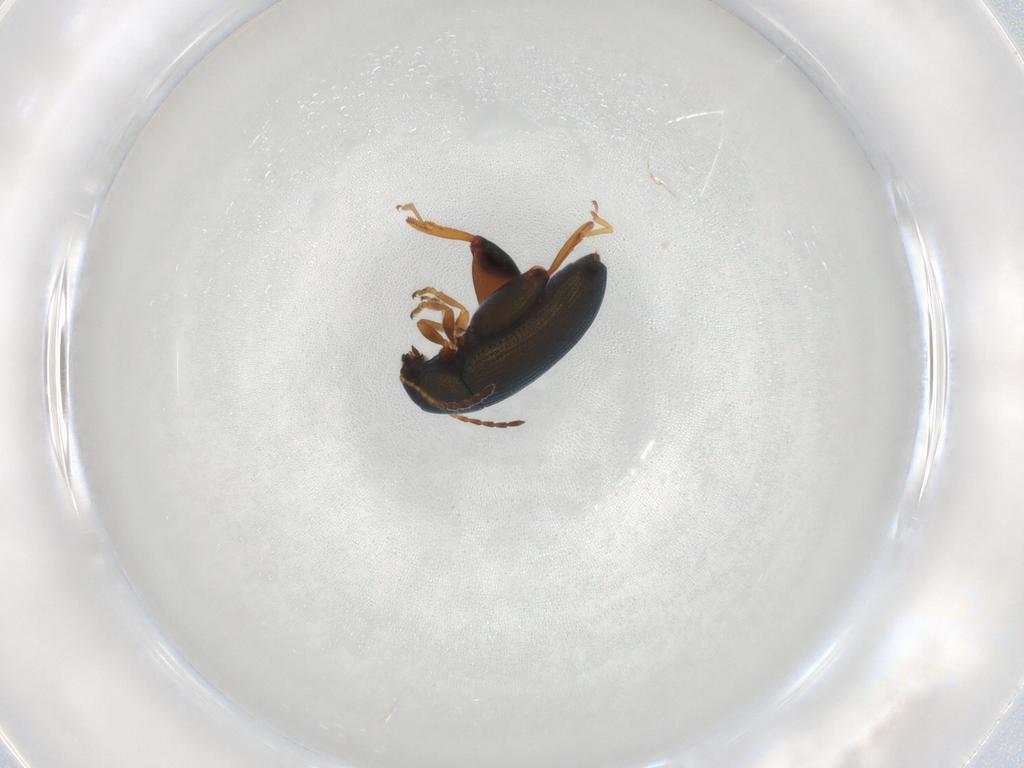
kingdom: Animalia
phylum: Arthropoda
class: Insecta
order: Coleoptera
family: Chrysomelidae
